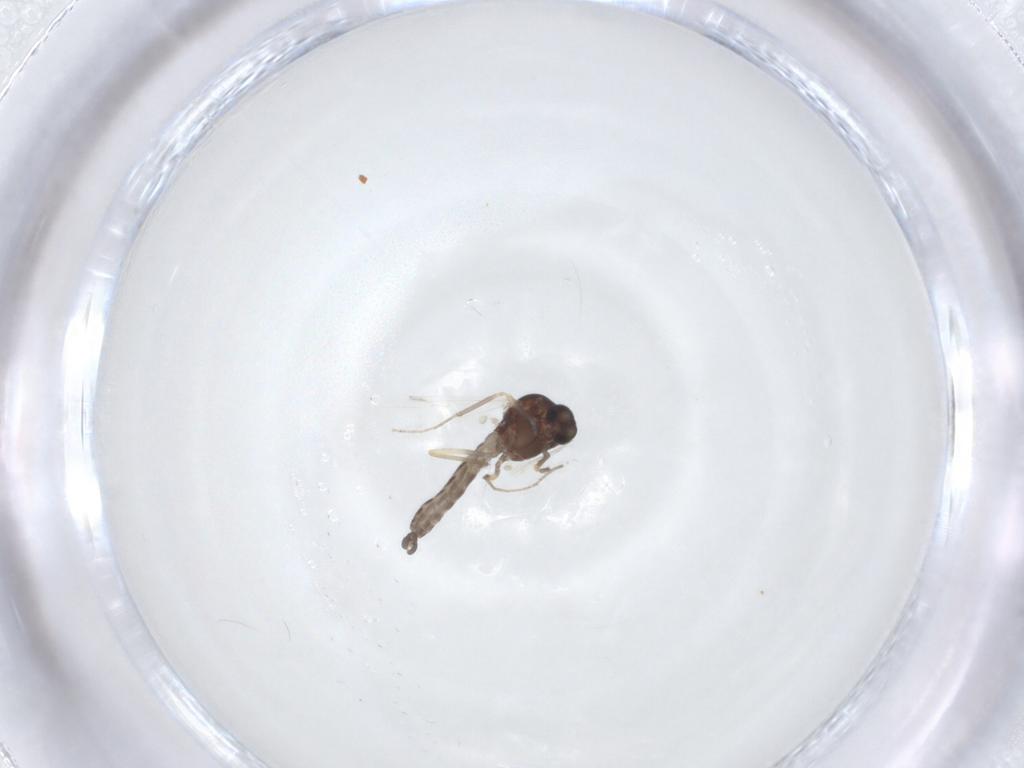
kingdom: Animalia
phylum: Arthropoda
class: Insecta
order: Diptera
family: Ceratopogonidae
